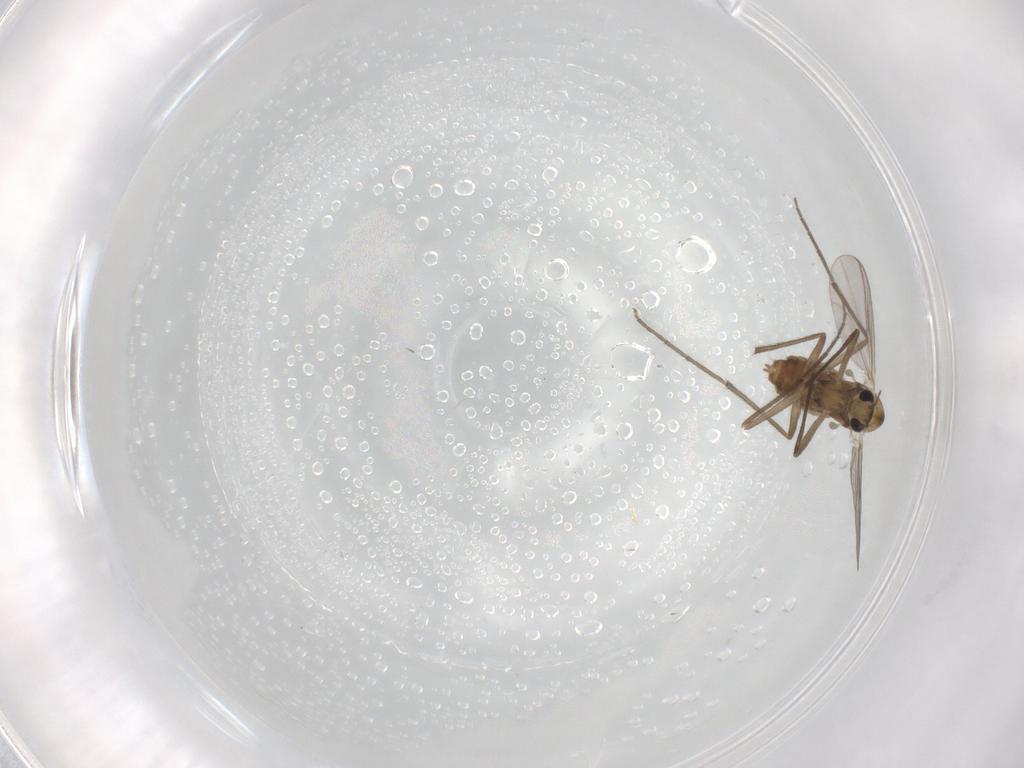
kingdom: Animalia
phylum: Arthropoda
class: Insecta
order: Diptera
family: Chironomidae
